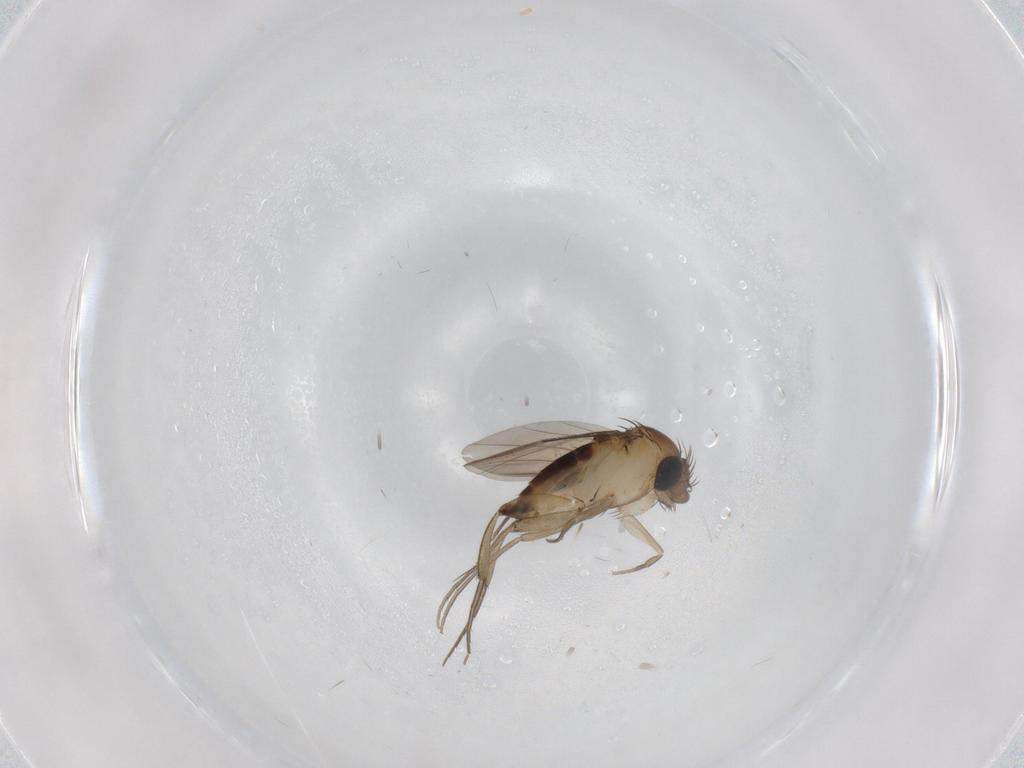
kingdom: Animalia
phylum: Arthropoda
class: Insecta
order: Diptera
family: Phoridae
